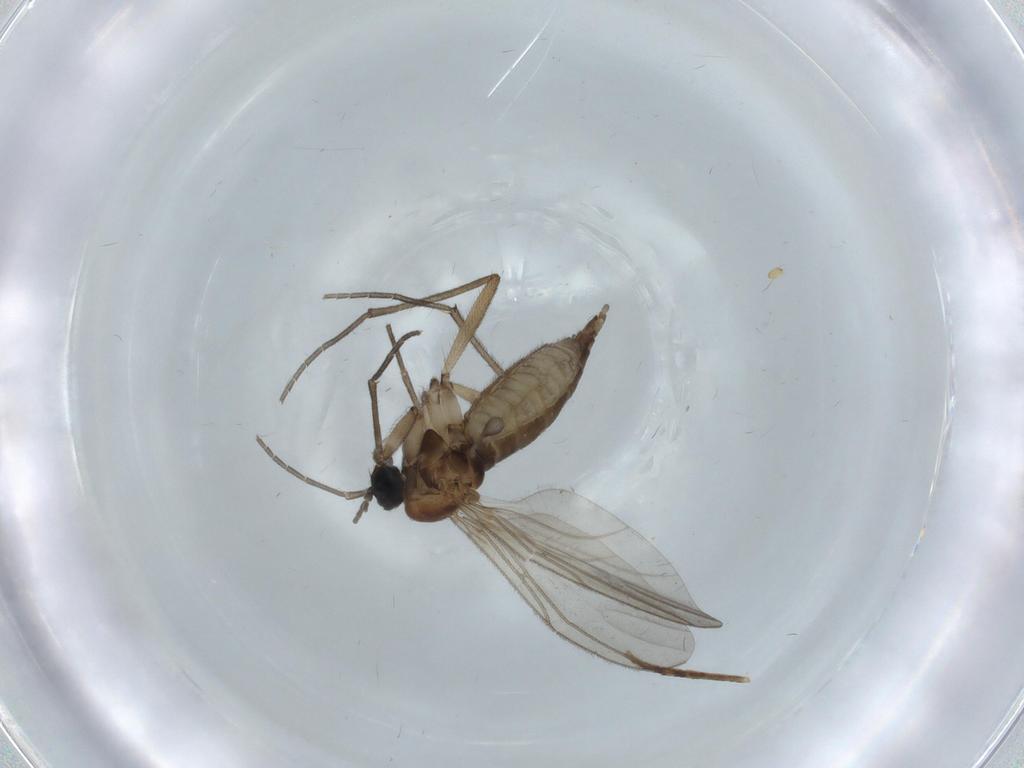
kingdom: Animalia
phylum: Arthropoda
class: Insecta
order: Diptera
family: Sciaridae
